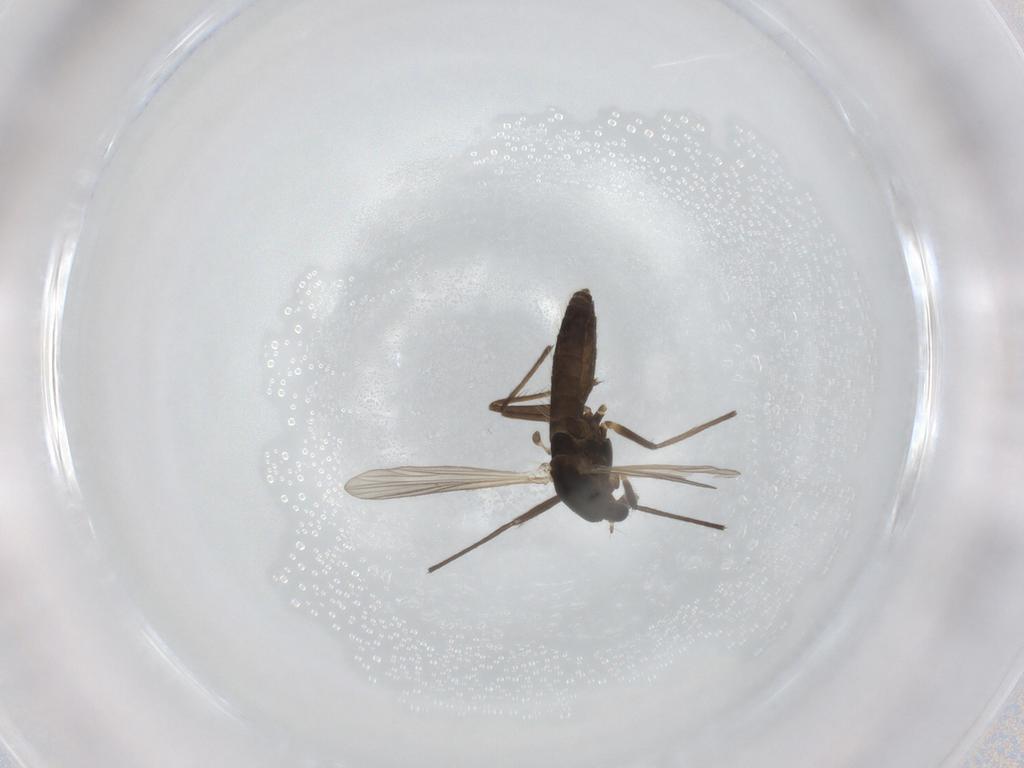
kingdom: Animalia
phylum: Arthropoda
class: Insecta
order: Diptera
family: Chironomidae
